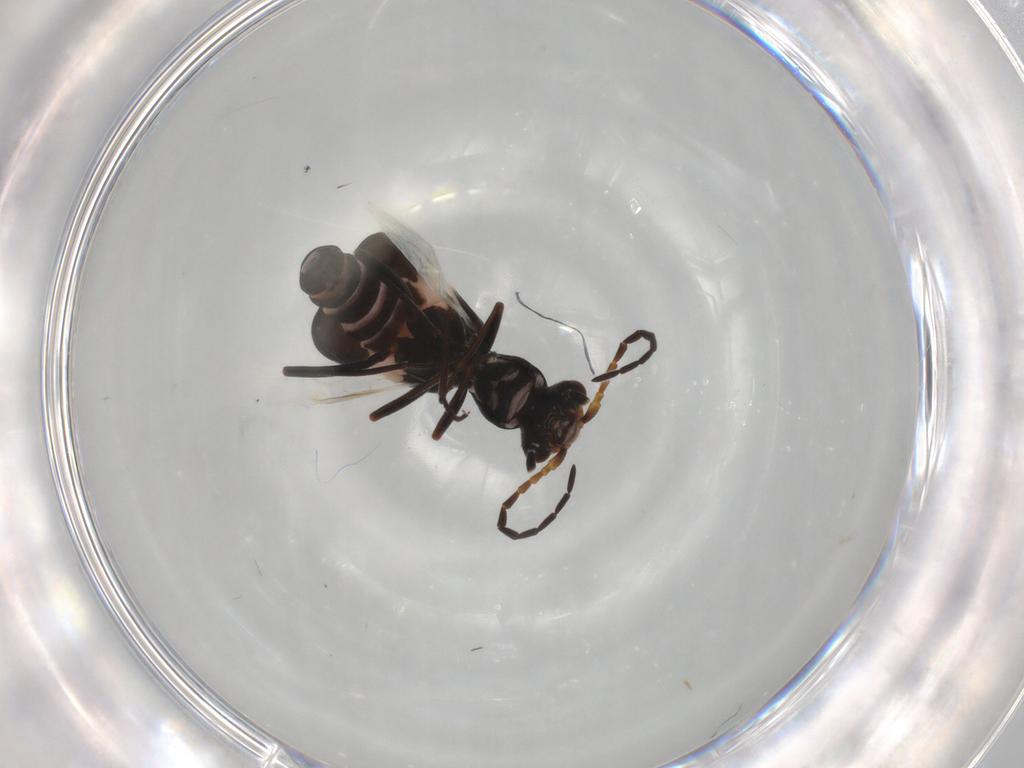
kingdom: Animalia
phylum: Arthropoda
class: Insecta
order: Coleoptera
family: Melyridae
